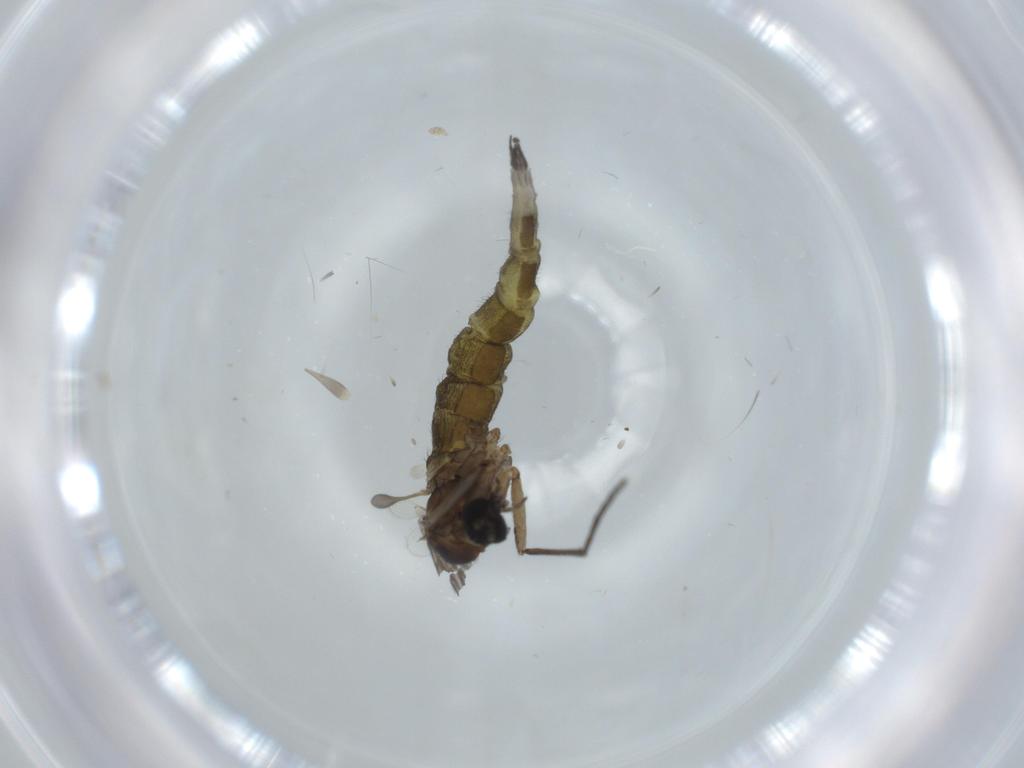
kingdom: Animalia
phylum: Arthropoda
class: Insecta
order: Diptera
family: Sciaridae
